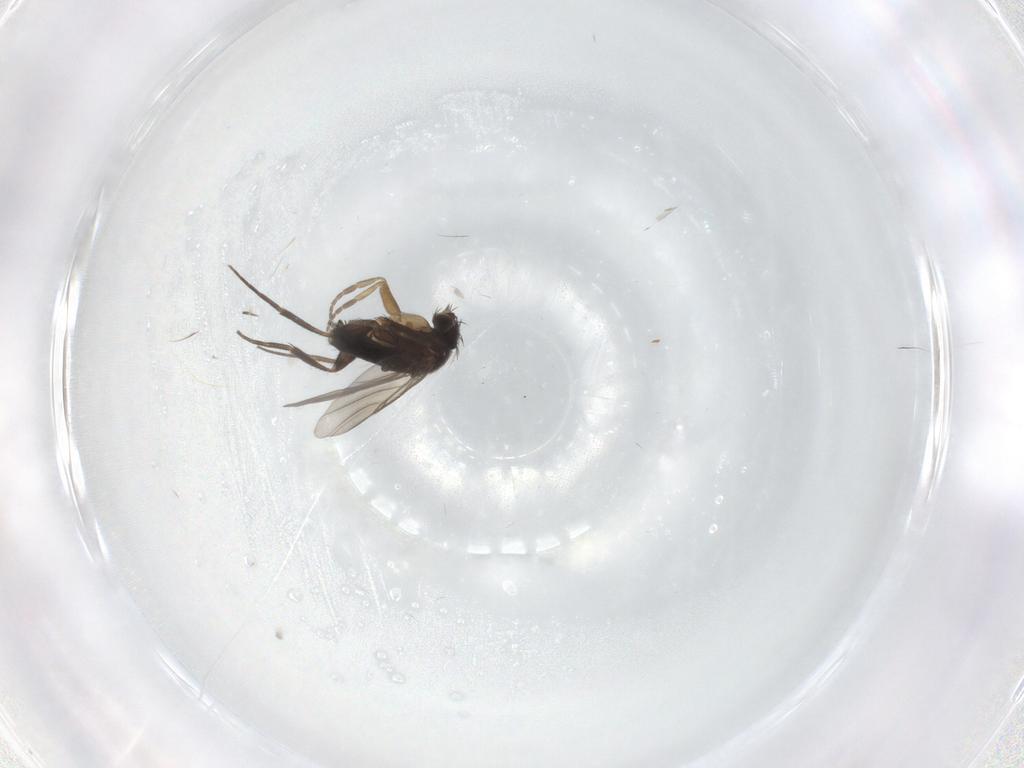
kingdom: Animalia
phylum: Arthropoda
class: Insecta
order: Diptera
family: Phoridae
